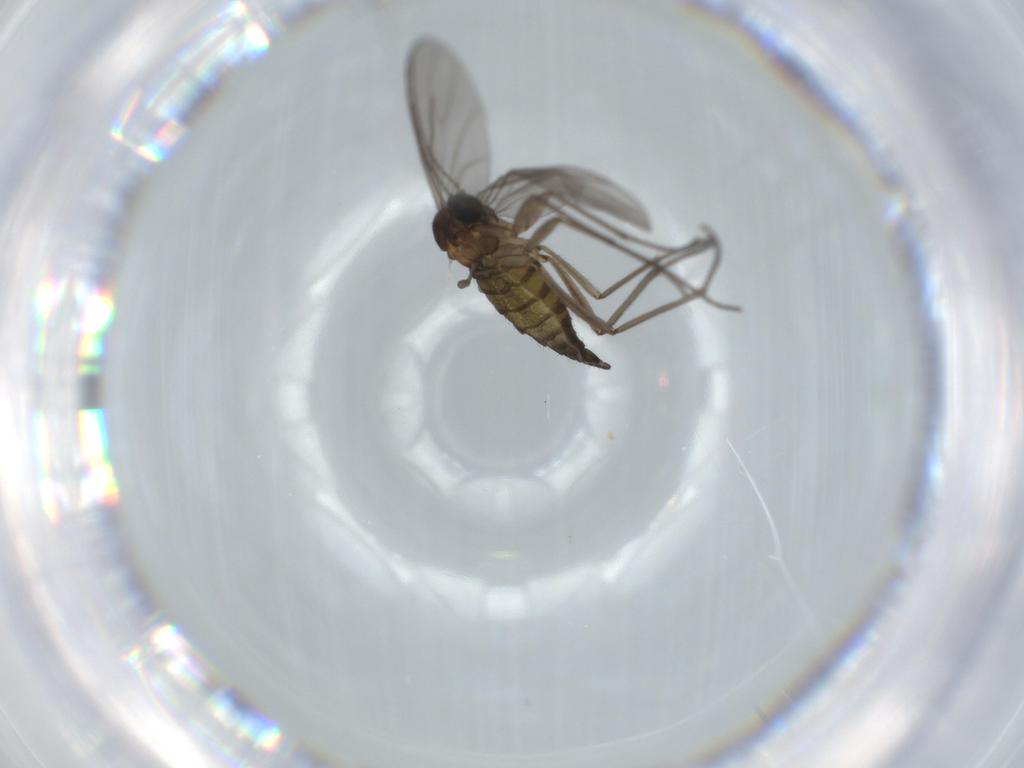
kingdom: Animalia
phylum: Arthropoda
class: Insecta
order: Diptera
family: Sciaridae
